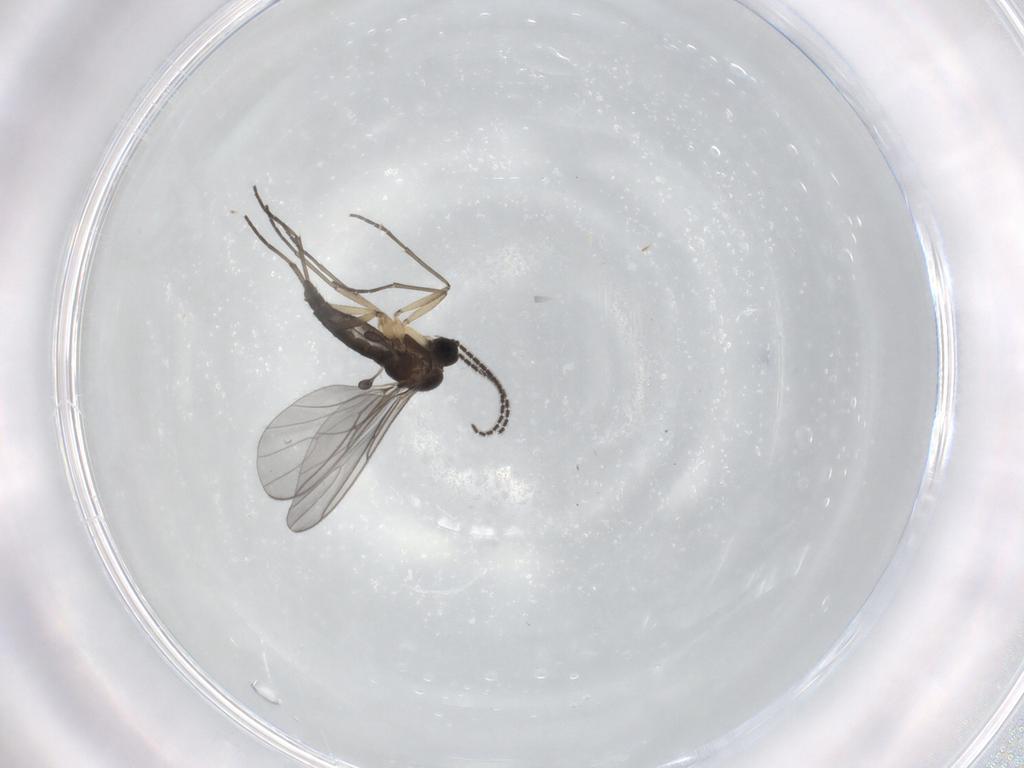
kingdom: Animalia
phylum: Arthropoda
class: Insecta
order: Diptera
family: Sciaridae
